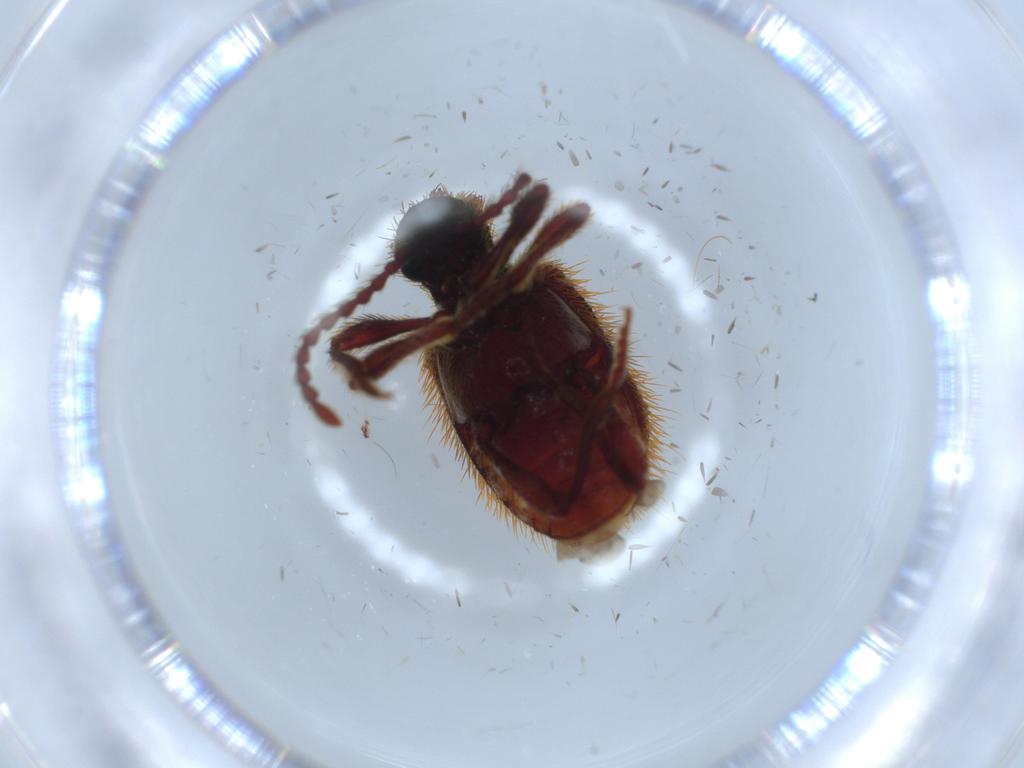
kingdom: Animalia
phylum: Arthropoda
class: Insecta
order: Coleoptera
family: Ptinidae
